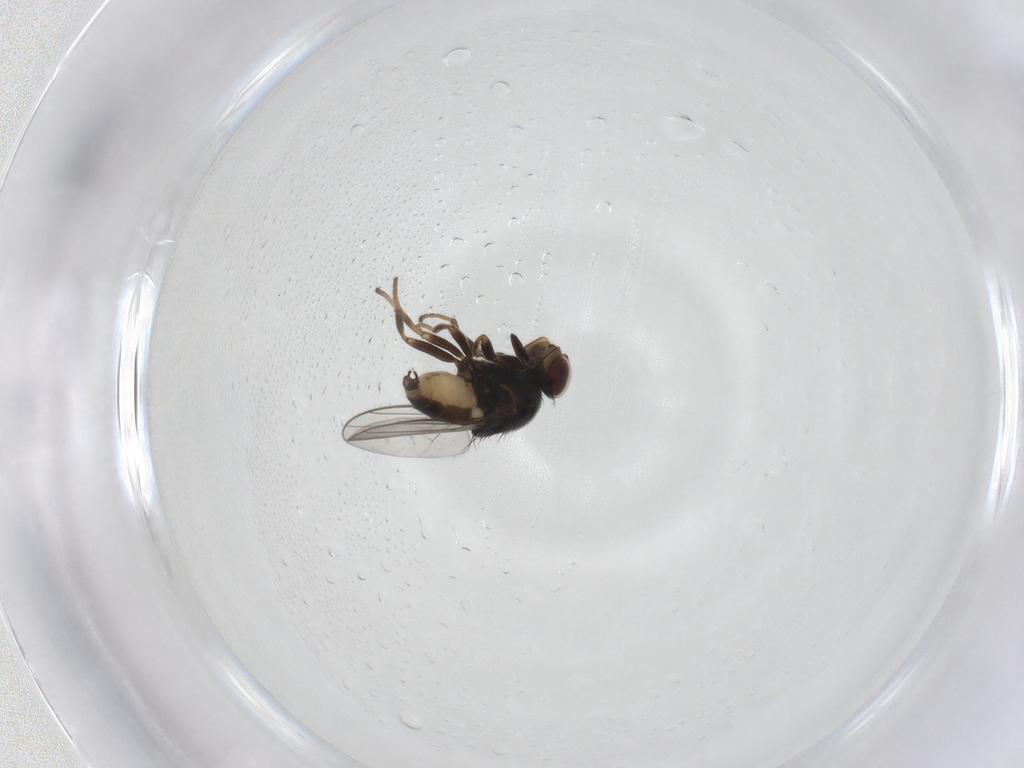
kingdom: Animalia
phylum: Arthropoda
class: Insecta
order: Diptera
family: Chloropidae
